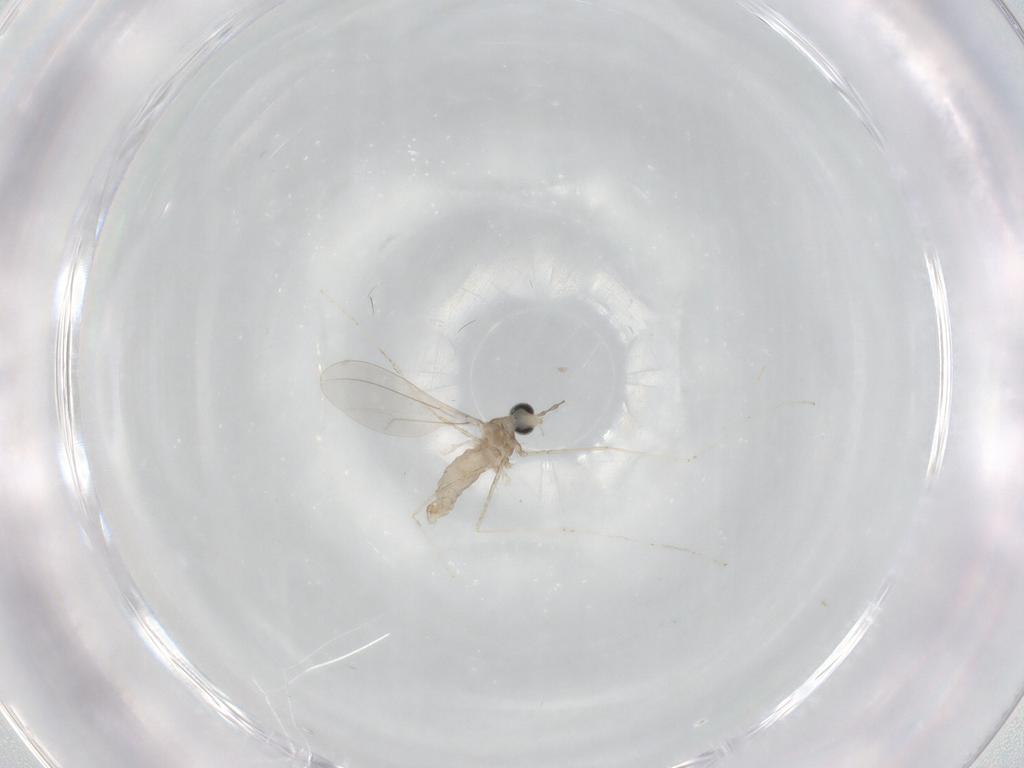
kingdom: Animalia
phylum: Arthropoda
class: Insecta
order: Diptera
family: Cecidomyiidae
